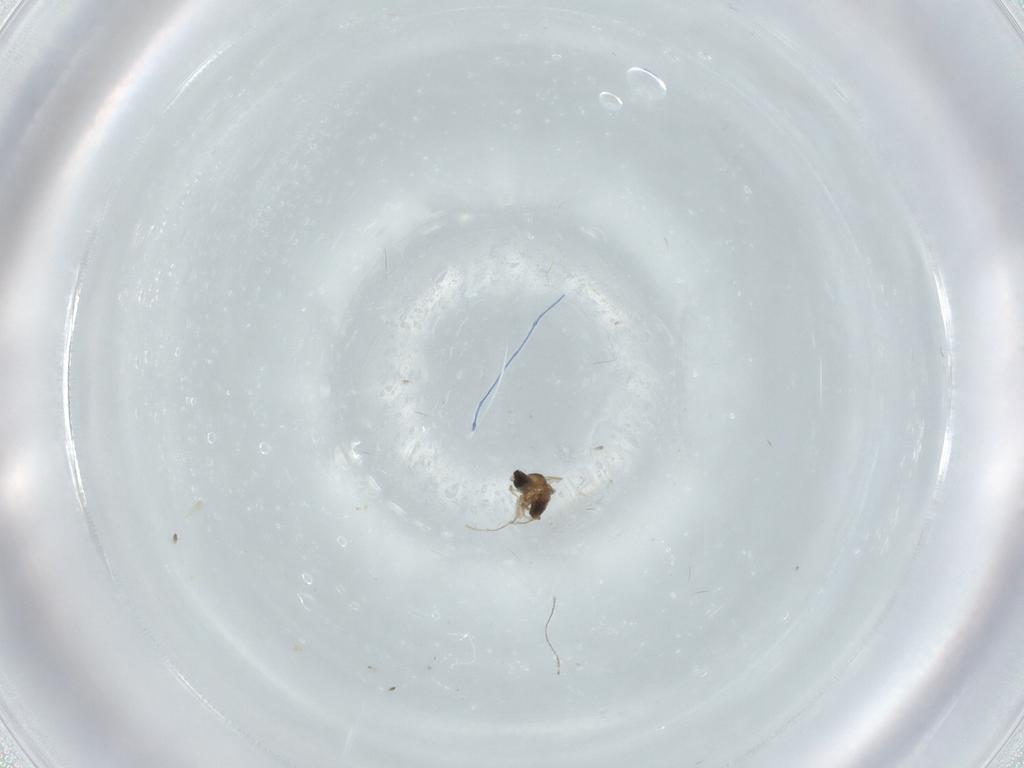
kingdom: Animalia
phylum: Arthropoda
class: Insecta
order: Diptera
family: Cecidomyiidae
